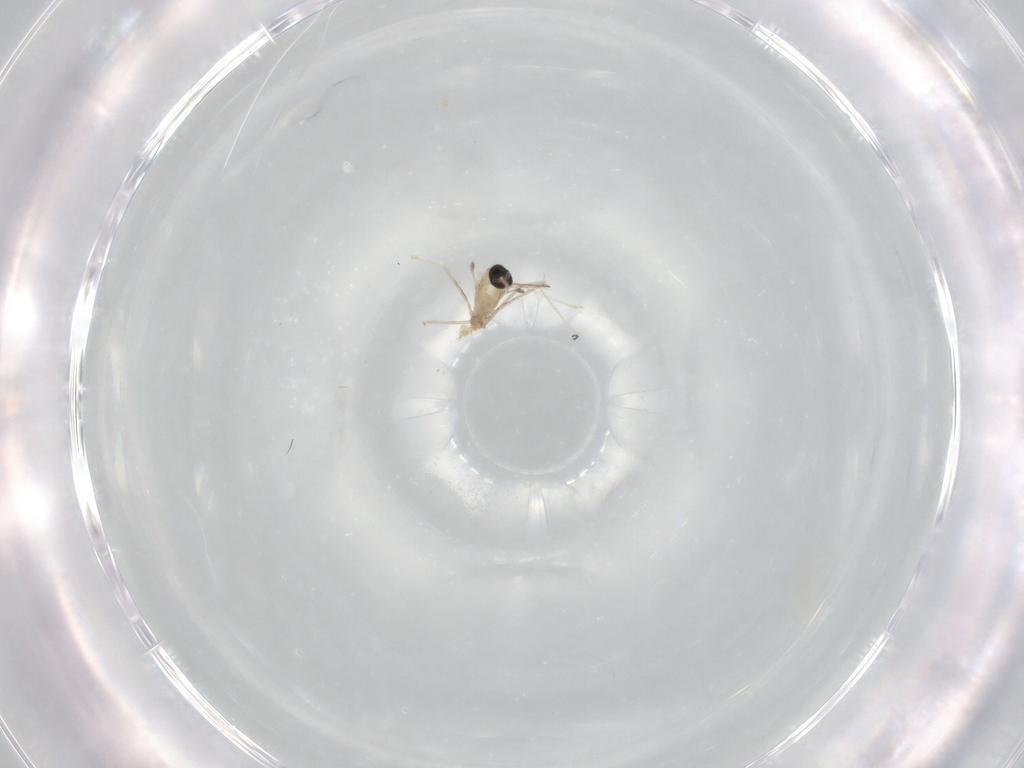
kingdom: Animalia
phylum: Arthropoda
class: Insecta
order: Diptera
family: Cecidomyiidae
